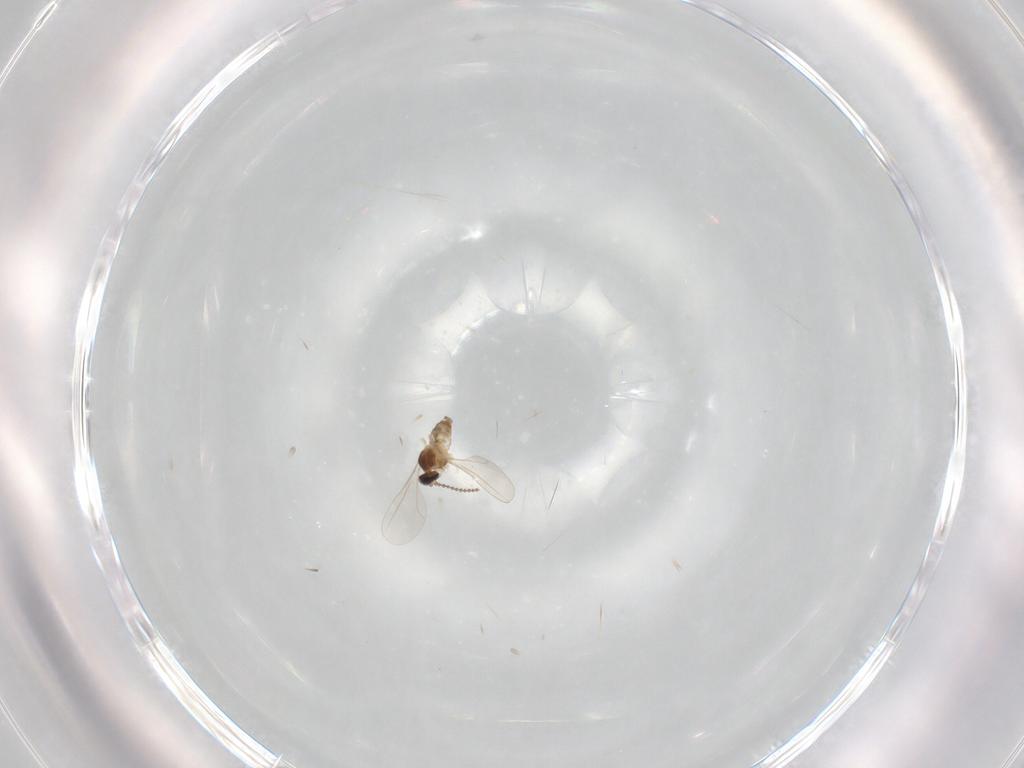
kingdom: Animalia
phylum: Arthropoda
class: Insecta
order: Diptera
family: Cecidomyiidae
